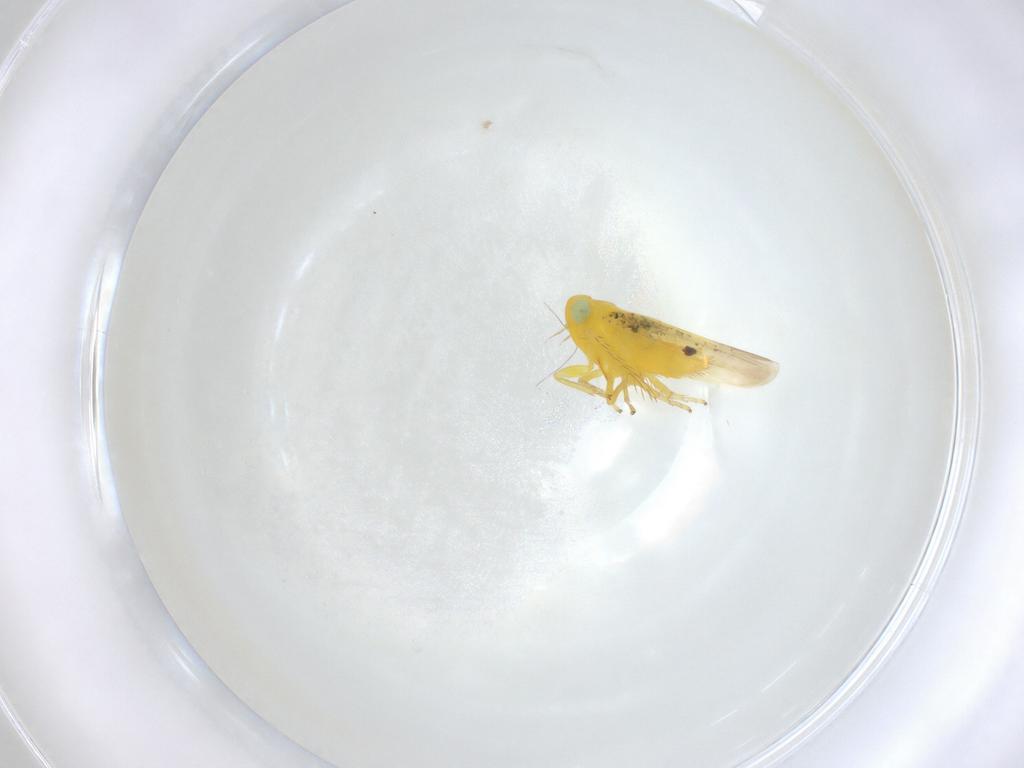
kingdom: Animalia
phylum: Arthropoda
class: Insecta
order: Hemiptera
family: Cicadellidae
